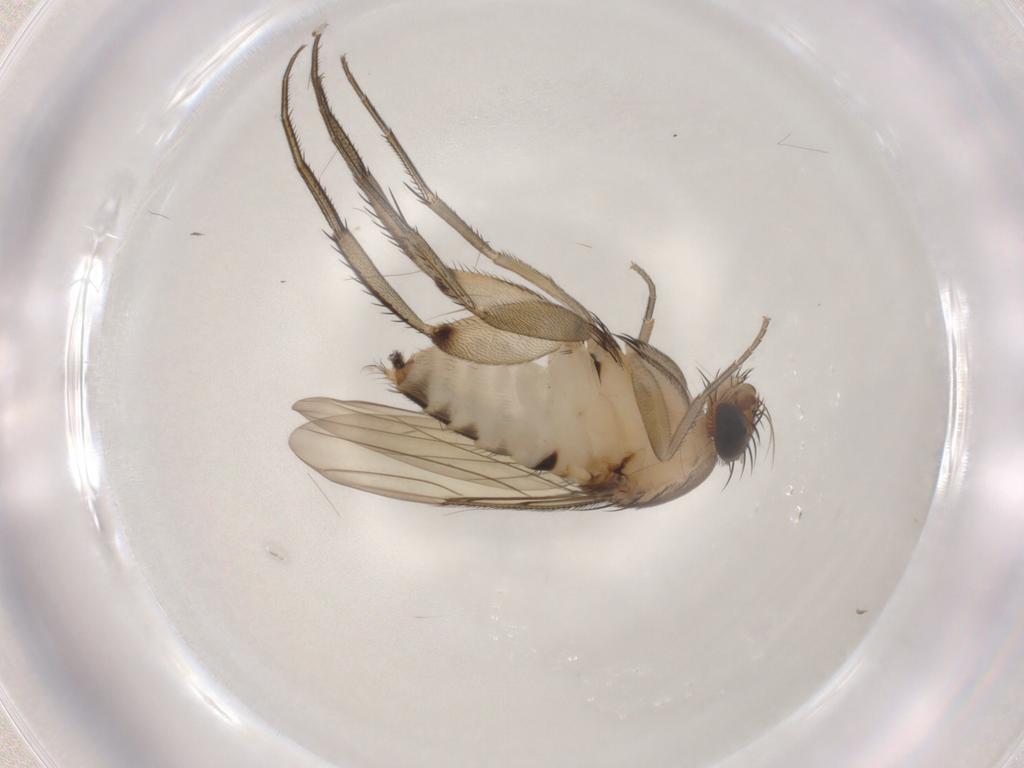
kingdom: Animalia
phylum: Arthropoda
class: Insecta
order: Diptera
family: Phoridae
